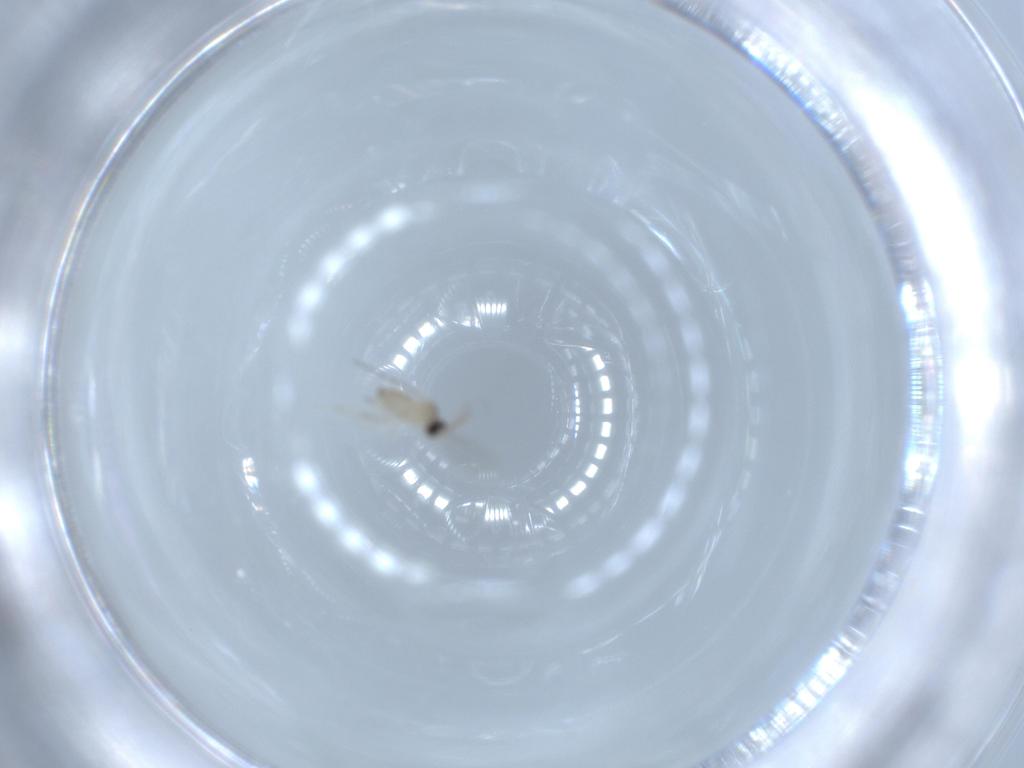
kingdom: Animalia
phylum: Arthropoda
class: Insecta
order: Diptera
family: Cecidomyiidae
